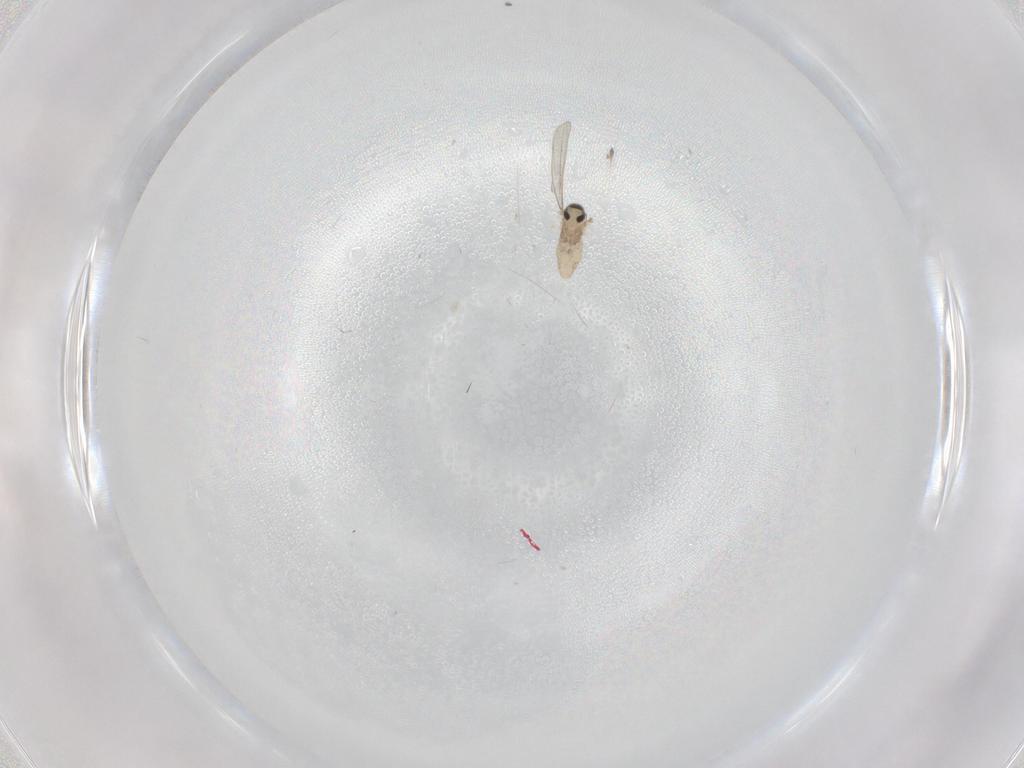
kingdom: Animalia
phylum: Arthropoda
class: Insecta
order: Diptera
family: Cecidomyiidae
